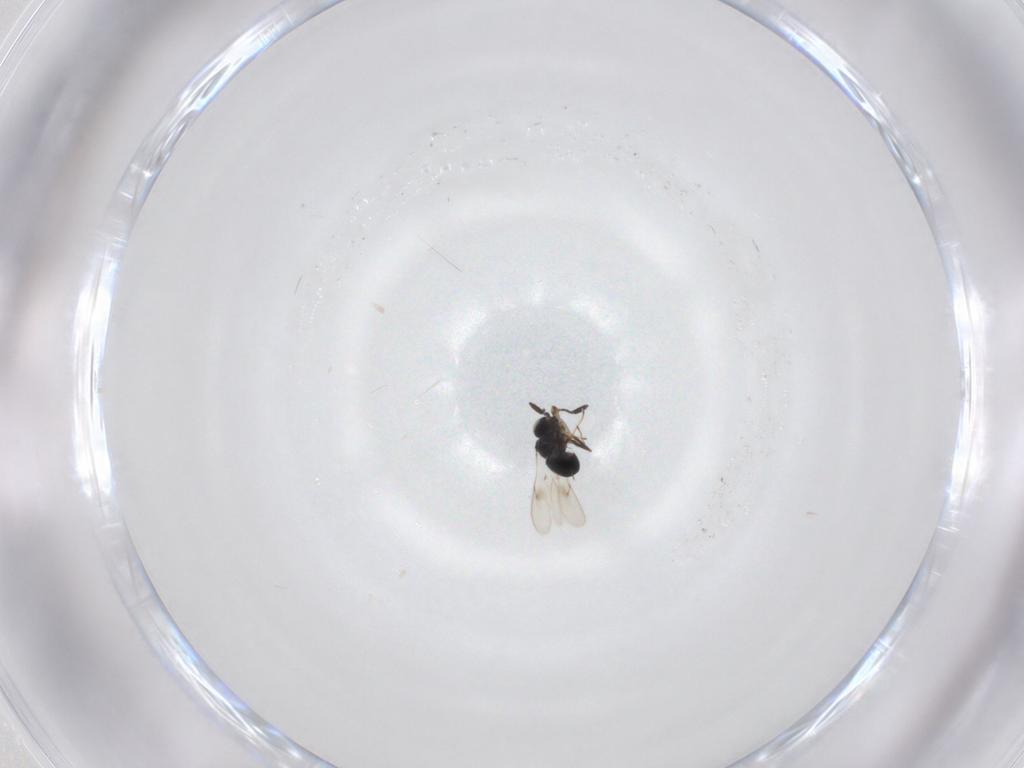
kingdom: Animalia
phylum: Arthropoda
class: Insecta
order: Hymenoptera
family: Scelionidae
